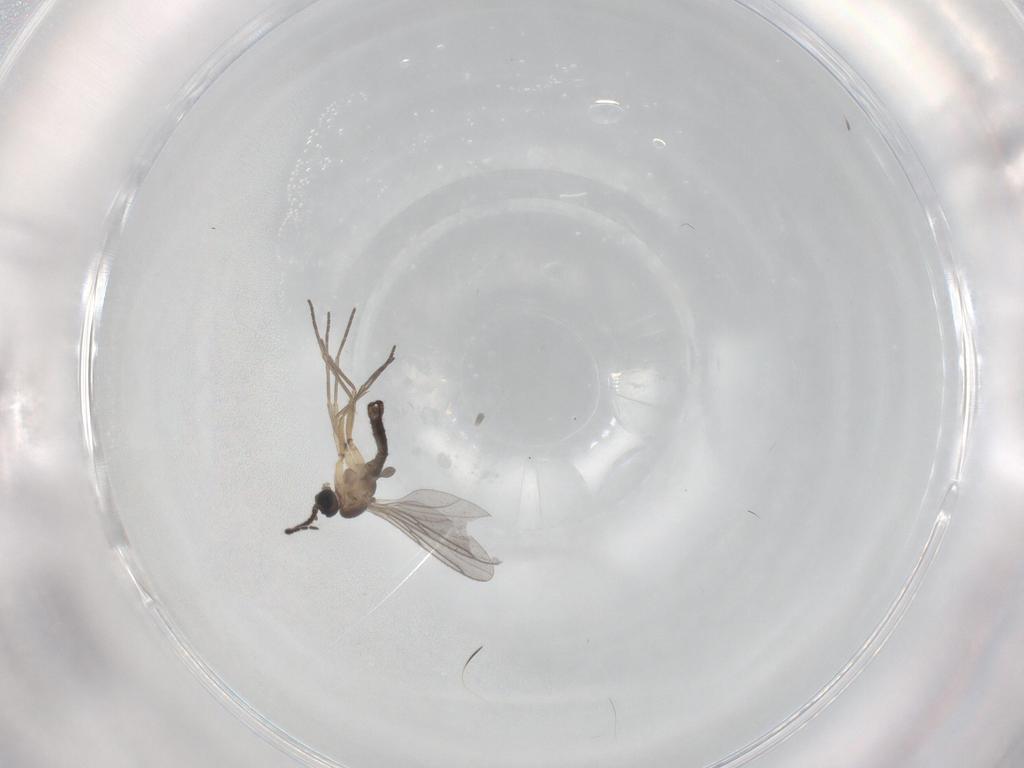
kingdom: Animalia
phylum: Arthropoda
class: Insecta
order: Diptera
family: Sciaridae
